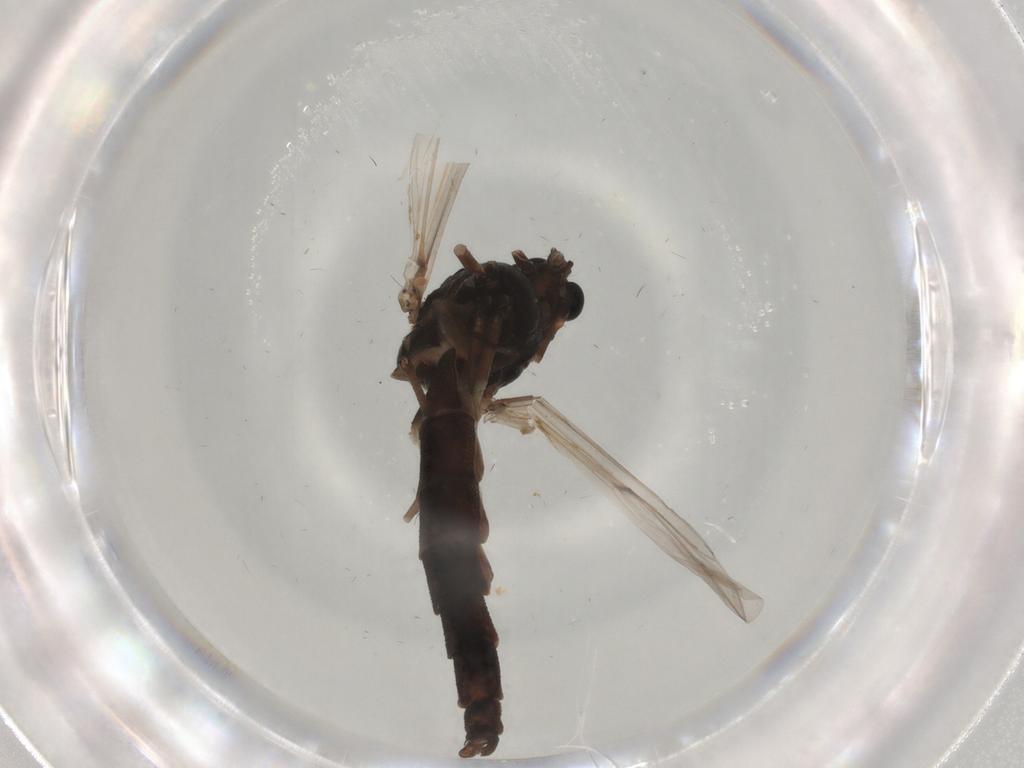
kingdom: Animalia
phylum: Arthropoda
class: Insecta
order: Diptera
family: Chironomidae
